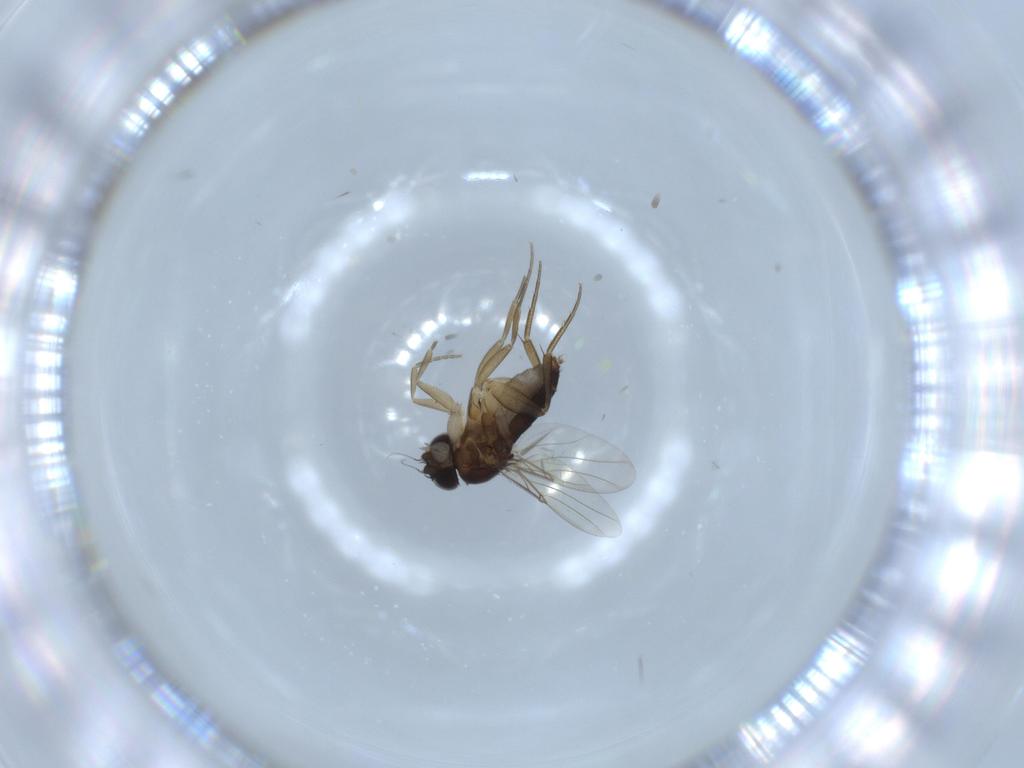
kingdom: Animalia
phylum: Arthropoda
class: Insecta
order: Diptera
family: Phoridae
